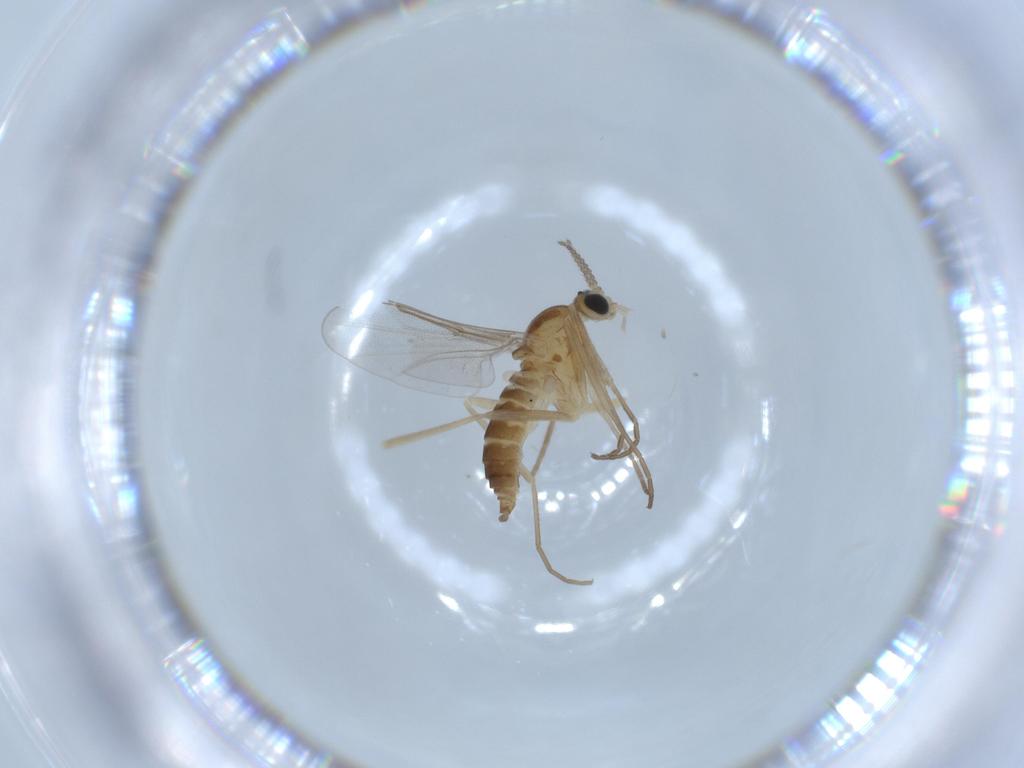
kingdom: Animalia
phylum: Arthropoda
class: Insecta
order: Diptera
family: Cecidomyiidae
